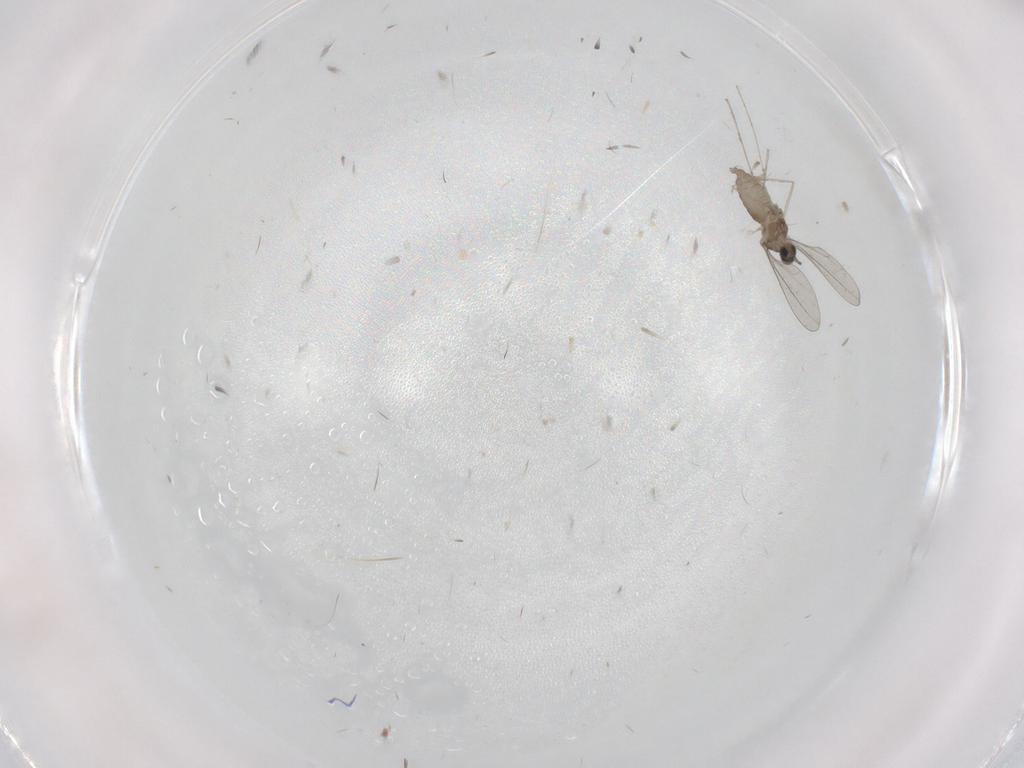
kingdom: Animalia
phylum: Arthropoda
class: Insecta
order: Diptera
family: Cecidomyiidae
